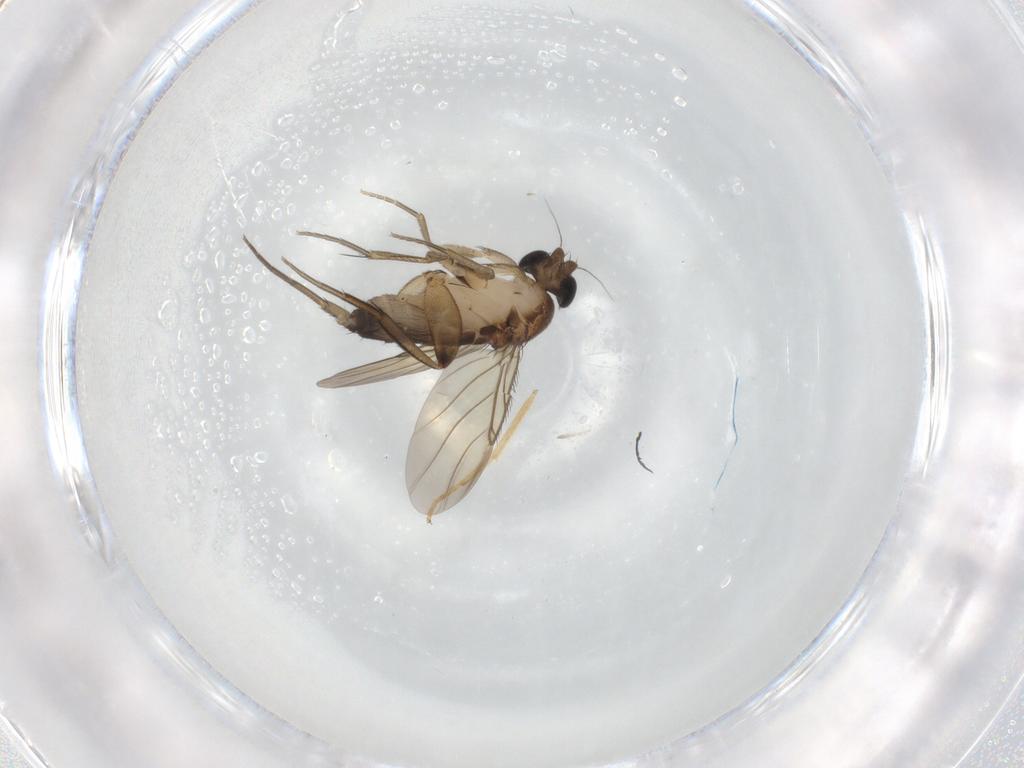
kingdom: Animalia
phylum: Arthropoda
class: Insecta
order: Diptera
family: Phoridae
